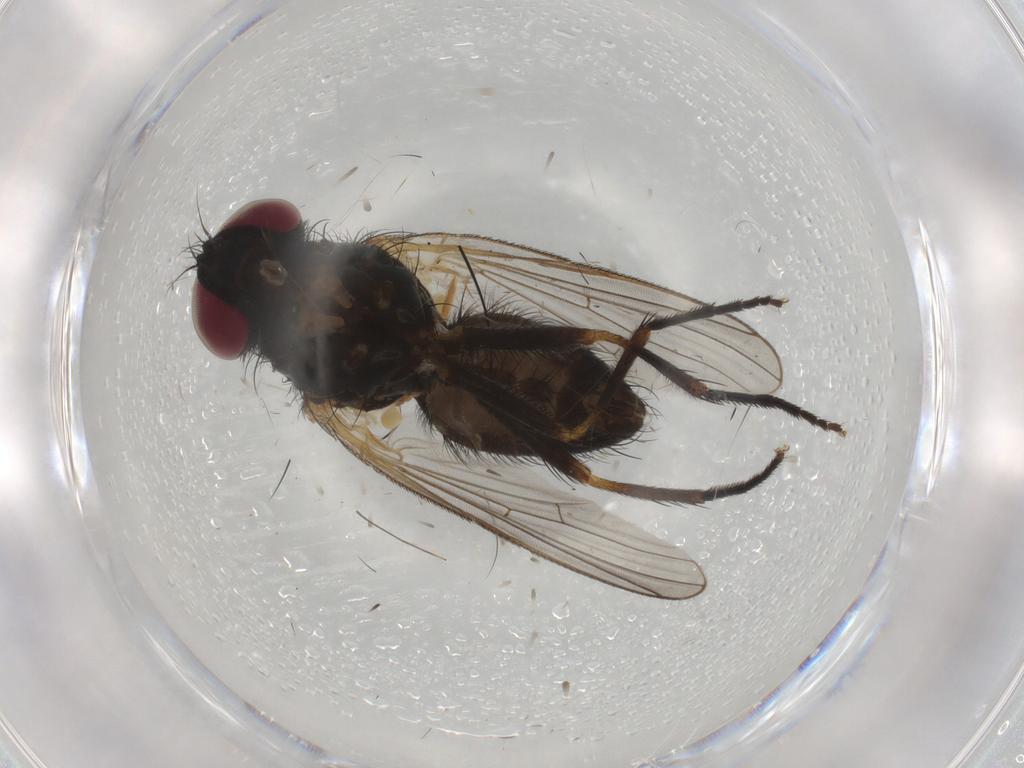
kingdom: Animalia
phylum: Arthropoda
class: Insecta
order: Diptera
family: Fannia
